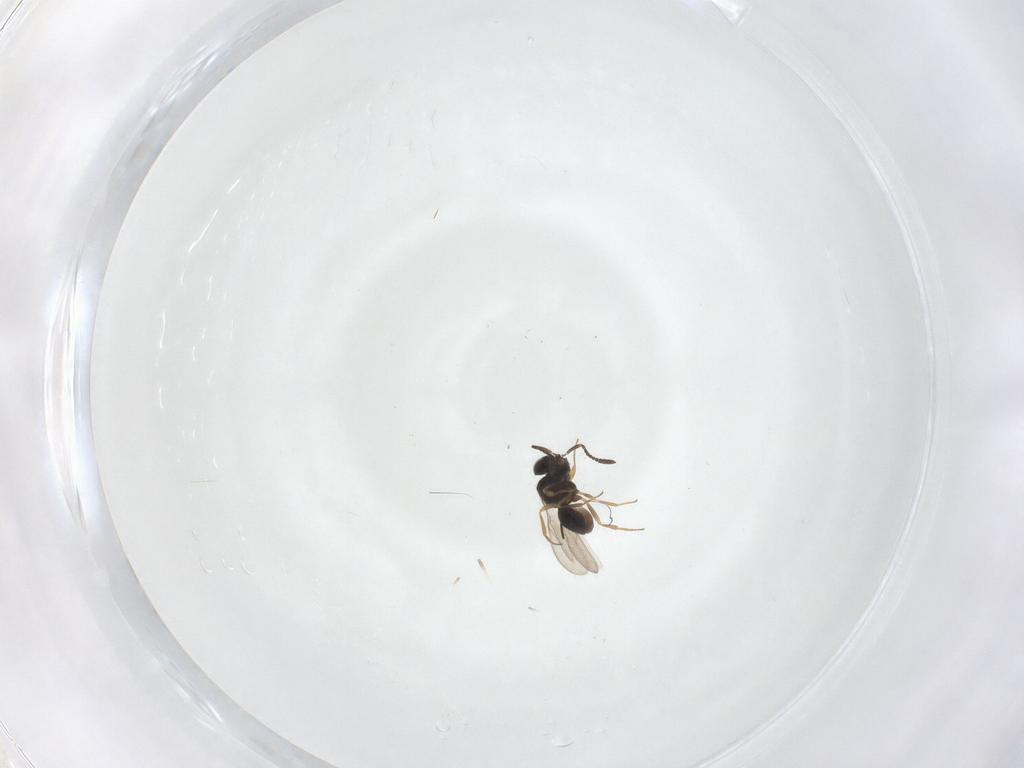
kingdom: Animalia
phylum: Arthropoda
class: Insecta
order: Hymenoptera
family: Scelionidae
